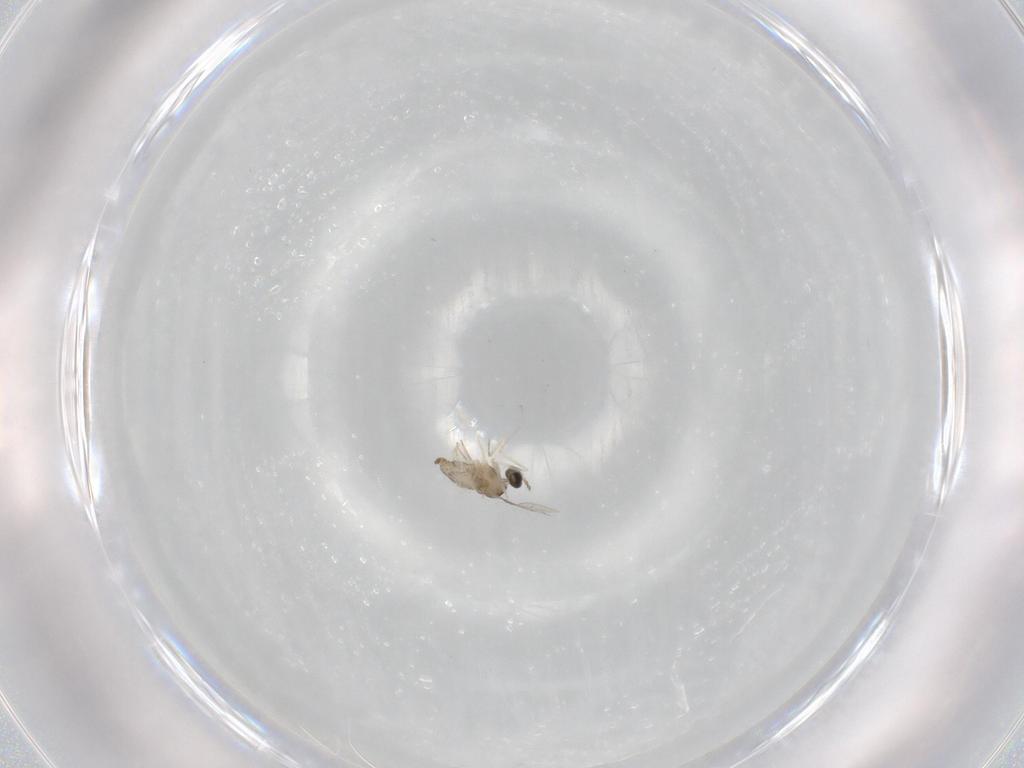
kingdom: Animalia
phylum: Arthropoda
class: Insecta
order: Diptera
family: Cecidomyiidae
